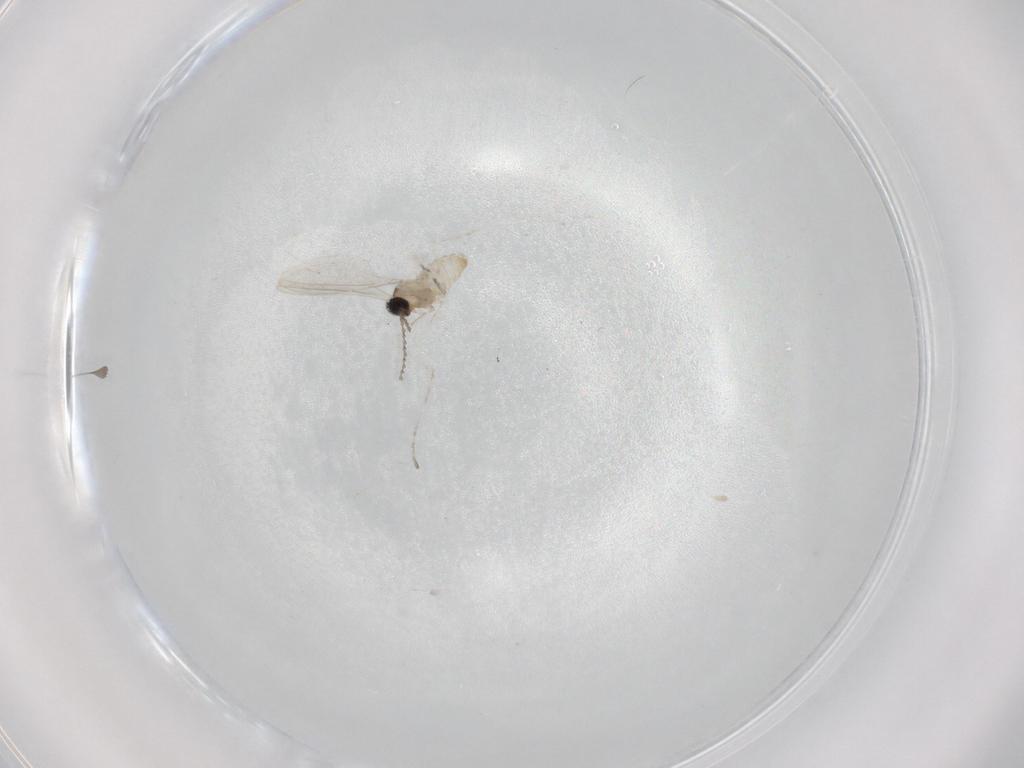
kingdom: Animalia
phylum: Arthropoda
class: Insecta
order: Diptera
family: Cecidomyiidae
